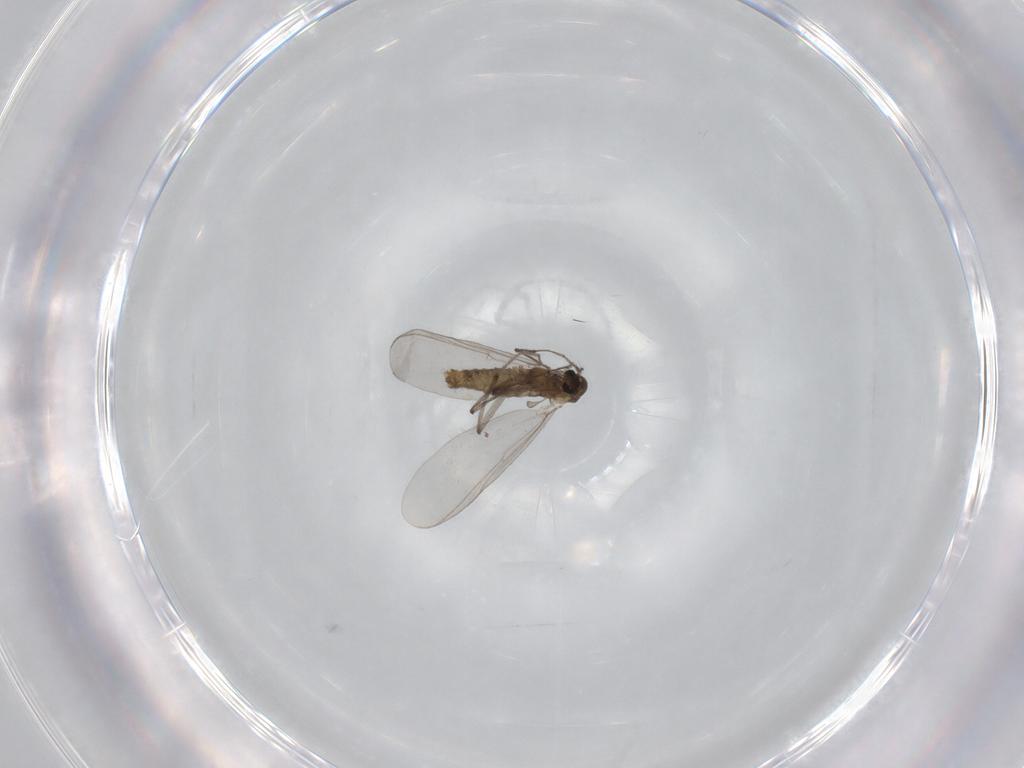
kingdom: Animalia
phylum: Arthropoda
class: Insecta
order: Diptera
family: Chironomidae
